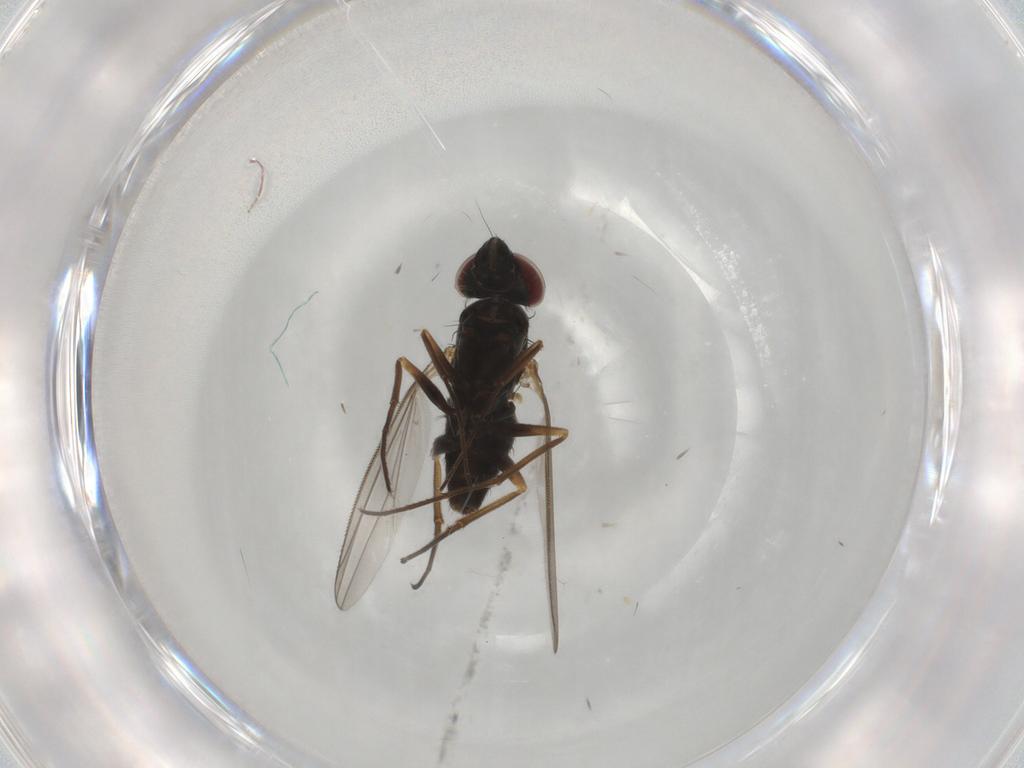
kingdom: Animalia
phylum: Arthropoda
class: Insecta
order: Diptera
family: Dolichopodidae
